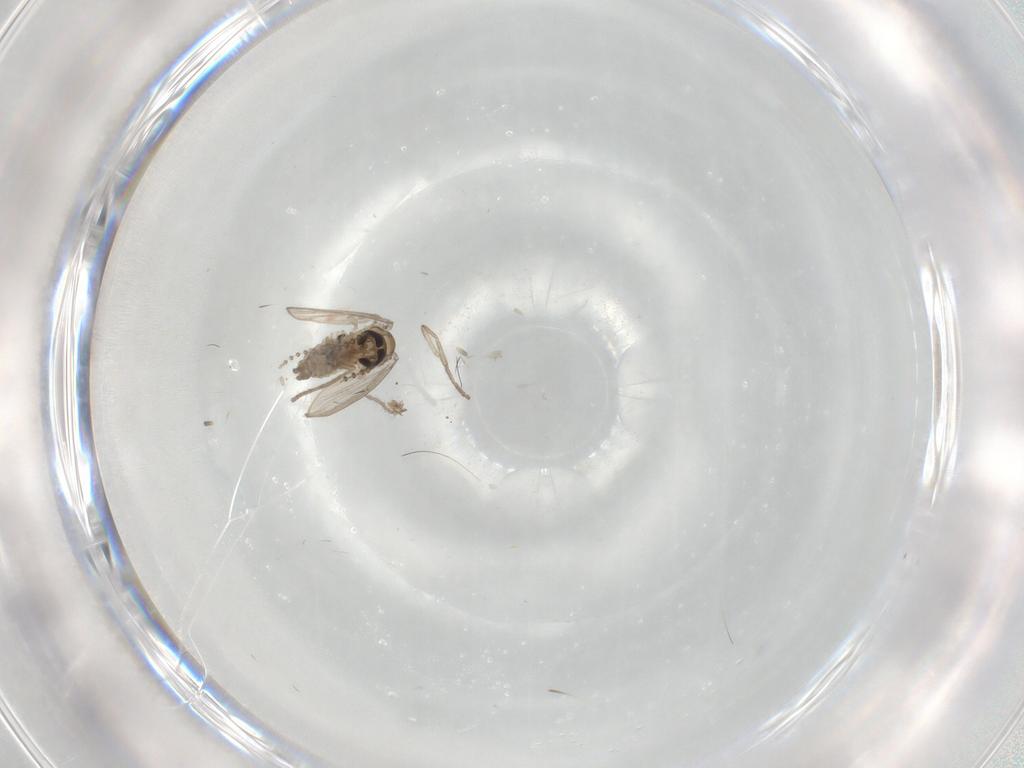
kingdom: Animalia
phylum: Arthropoda
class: Insecta
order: Diptera
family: Psychodidae
